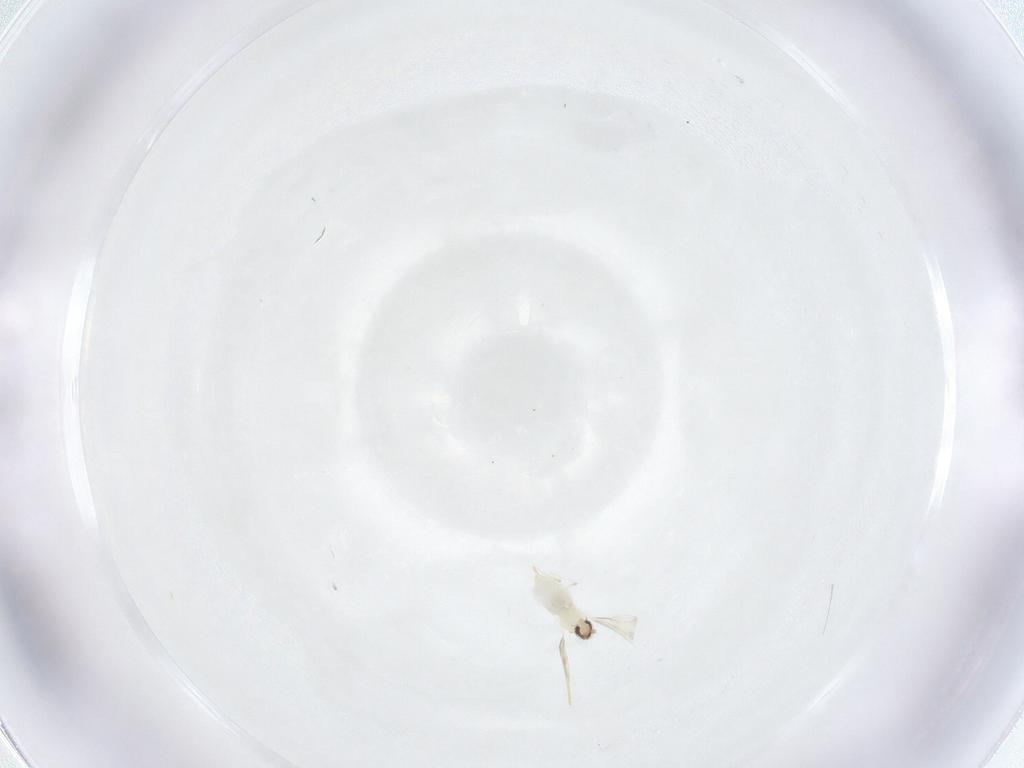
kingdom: Animalia
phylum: Arthropoda
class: Insecta
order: Diptera
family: Cecidomyiidae
